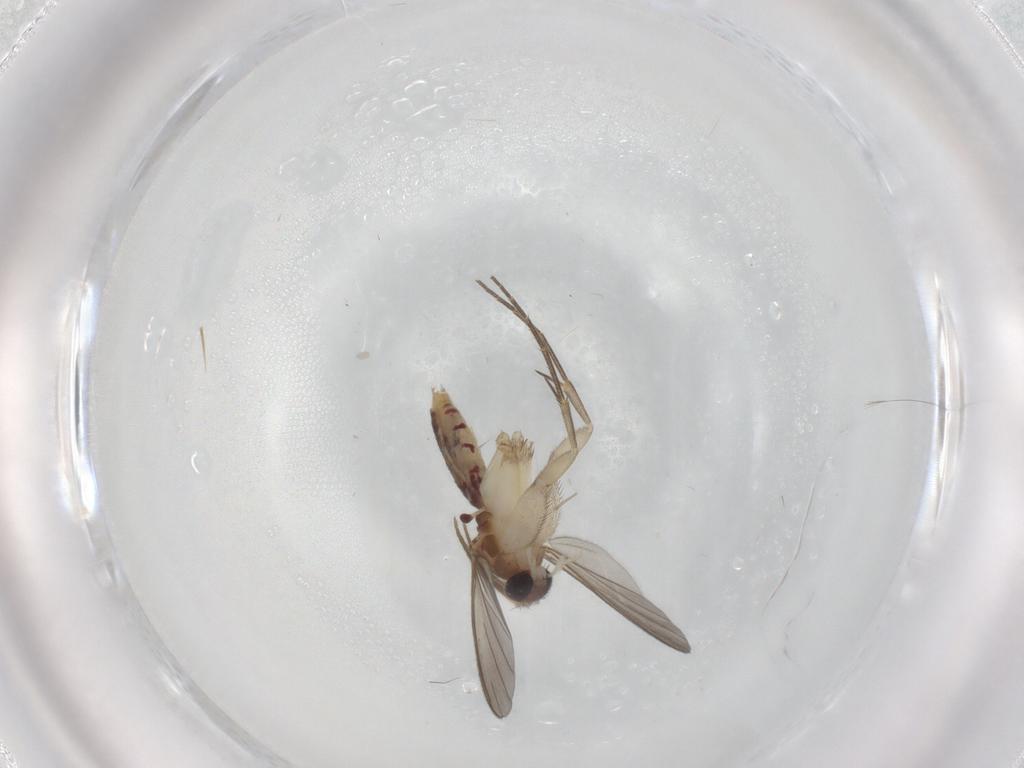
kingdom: Animalia
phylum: Arthropoda
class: Insecta
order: Diptera
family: Mycetophilidae
